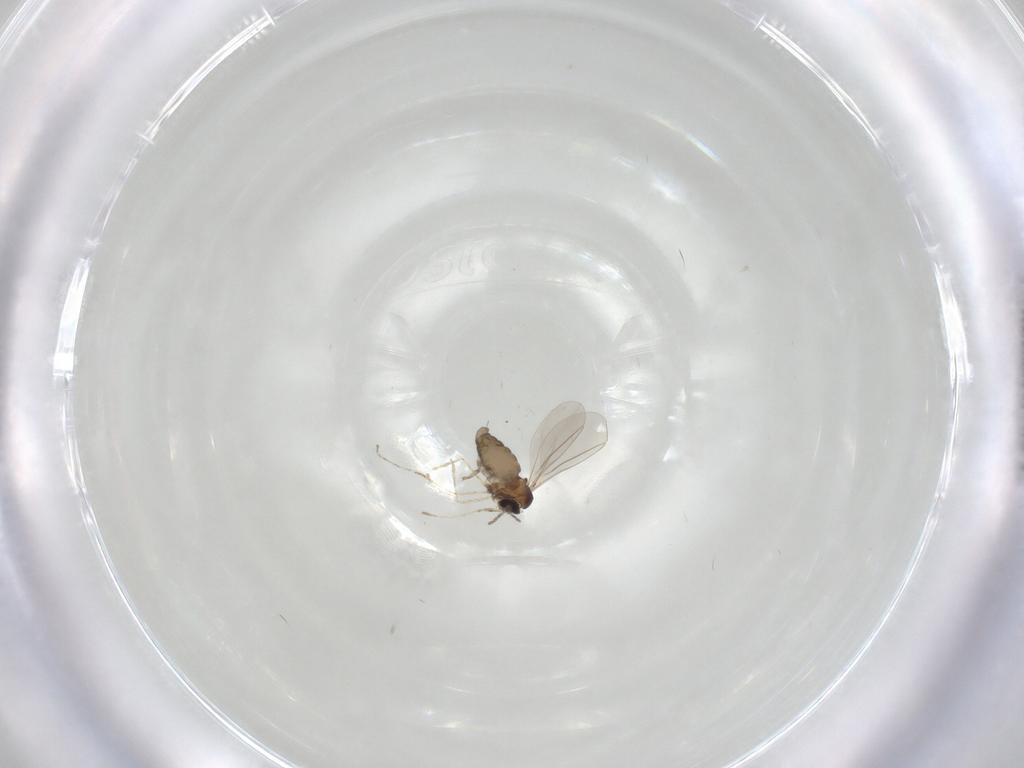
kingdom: Animalia
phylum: Arthropoda
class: Insecta
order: Diptera
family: Cecidomyiidae
